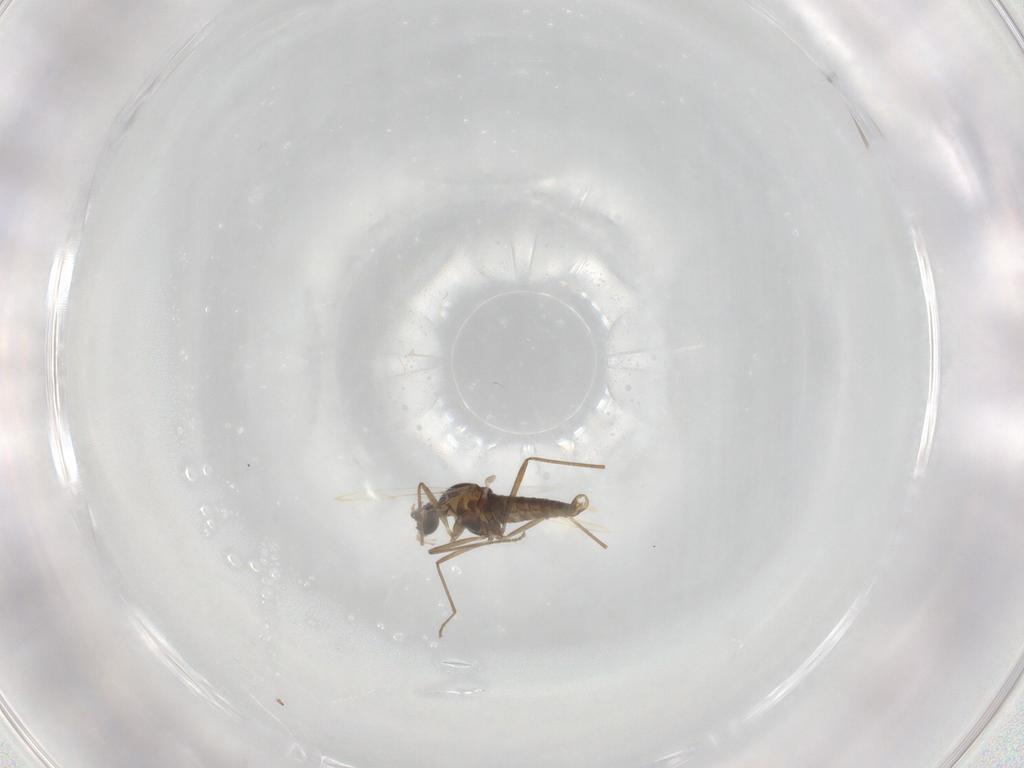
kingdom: Animalia
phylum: Arthropoda
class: Insecta
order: Diptera
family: Cecidomyiidae
